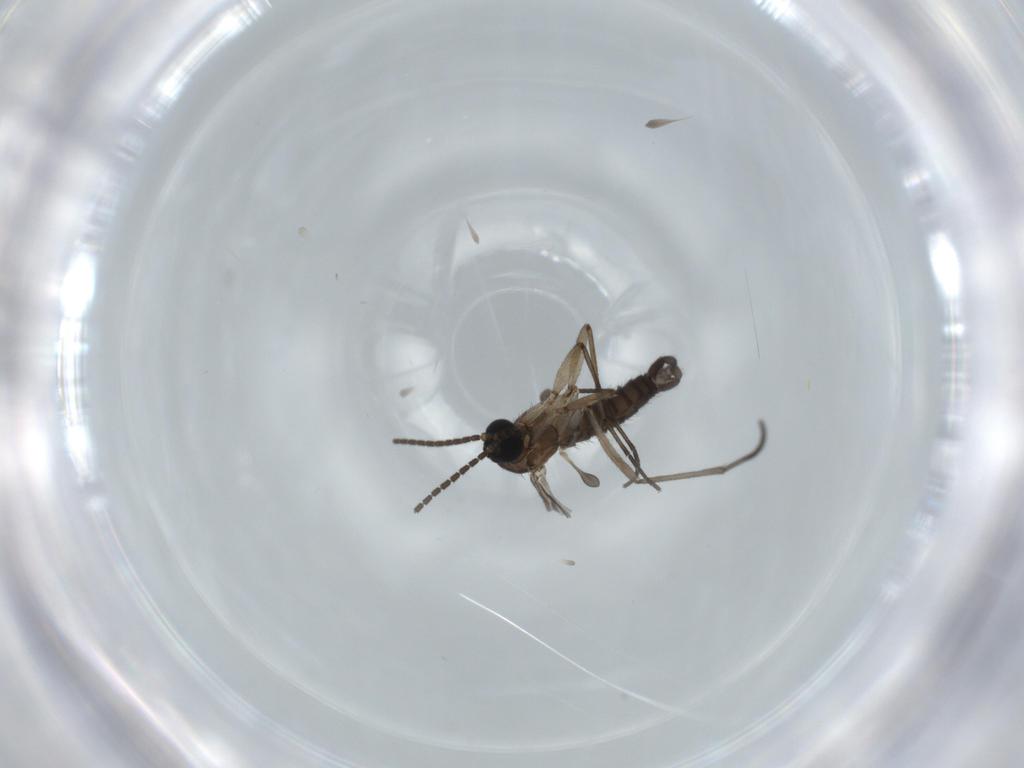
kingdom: Animalia
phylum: Arthropoda
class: Insecta
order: Diptera
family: Sciaridae
